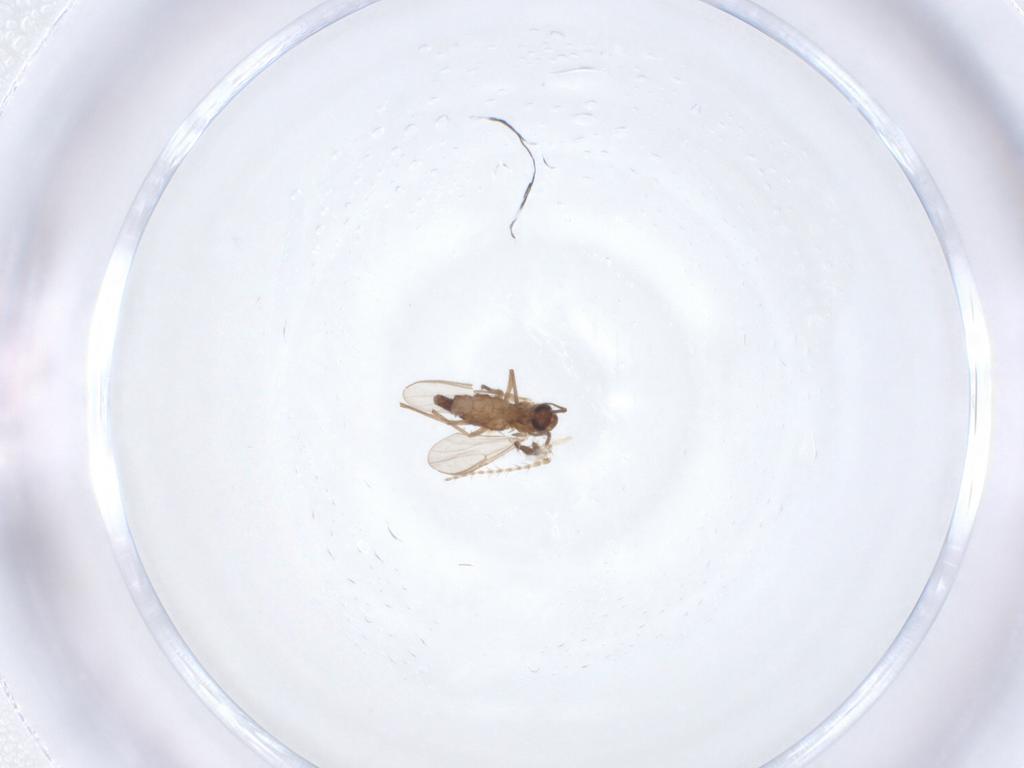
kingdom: Animalia
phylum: Arthropoda
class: Insecta
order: Diptera
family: Chironomidae
